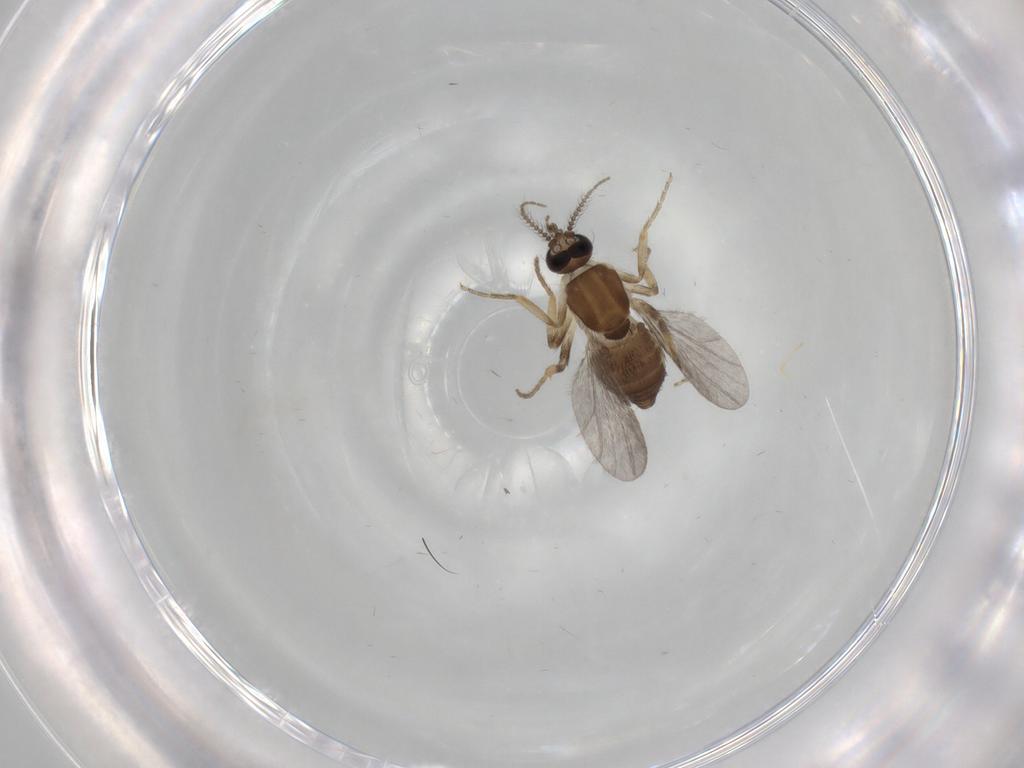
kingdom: Animalia
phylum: Arthropoda
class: Insecta
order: Diptera
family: Ceratopogonidae
